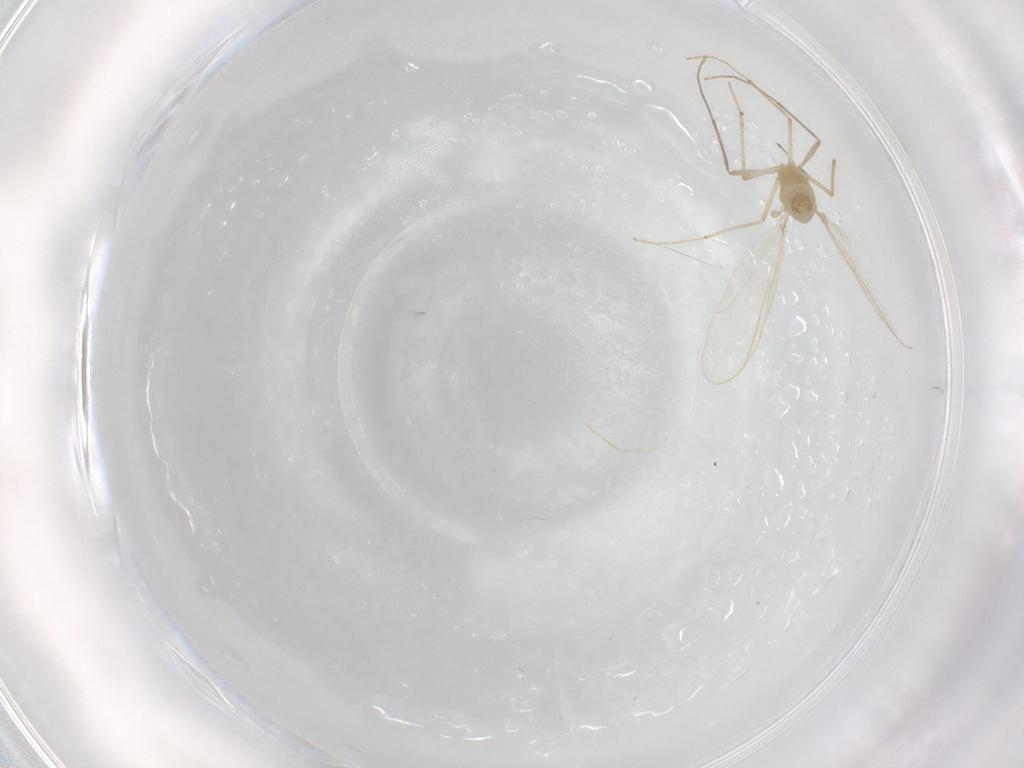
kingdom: Animalia
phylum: Arthropoda
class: Insecta
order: Diptera
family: Chironomidae
